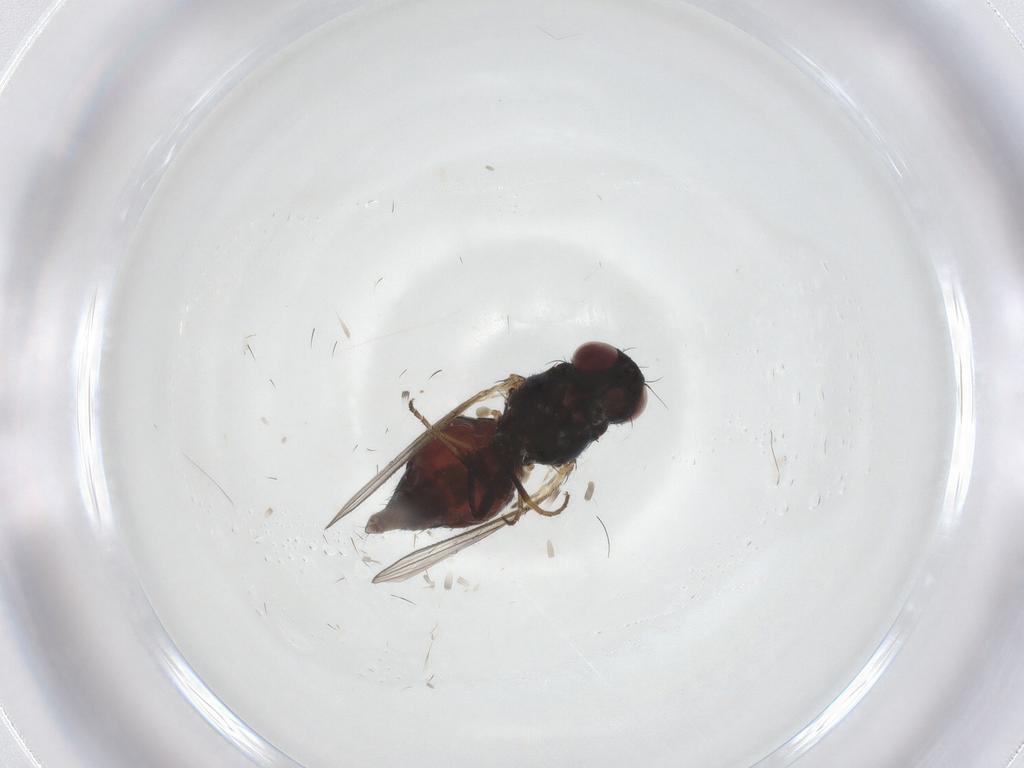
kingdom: Animalia
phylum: Arthropoda
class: Insecta
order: Diptera
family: Carnidae
